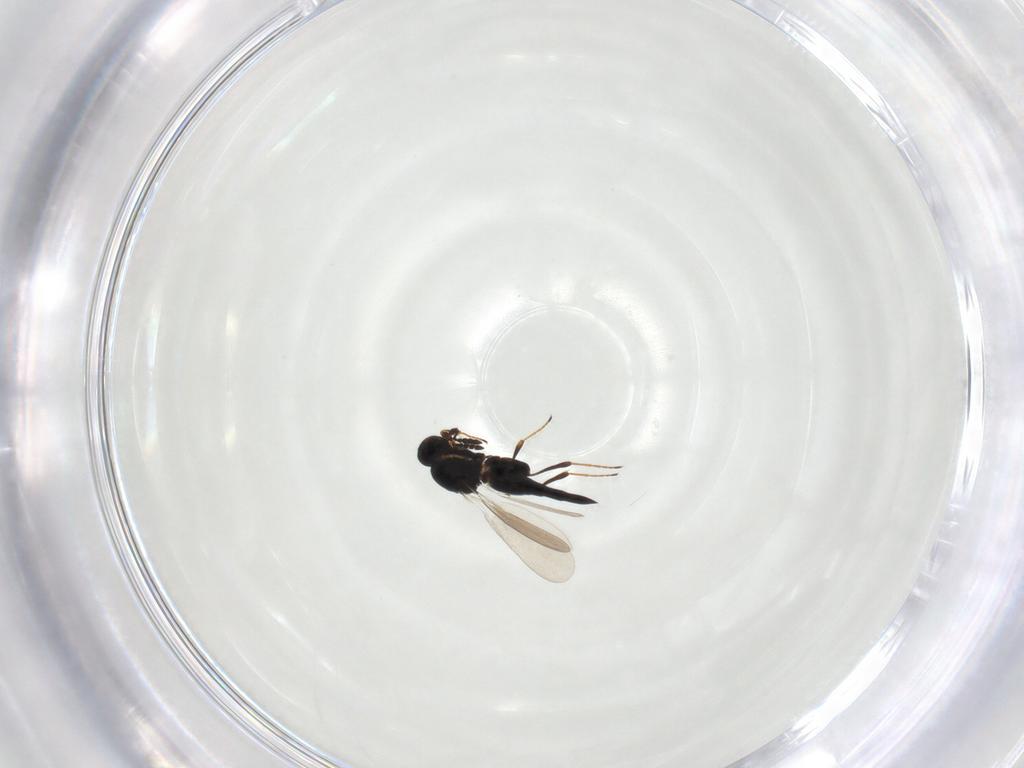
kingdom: Animalia
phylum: Arthropoda
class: Insecta
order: Hymenoptera
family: Platygastridae
